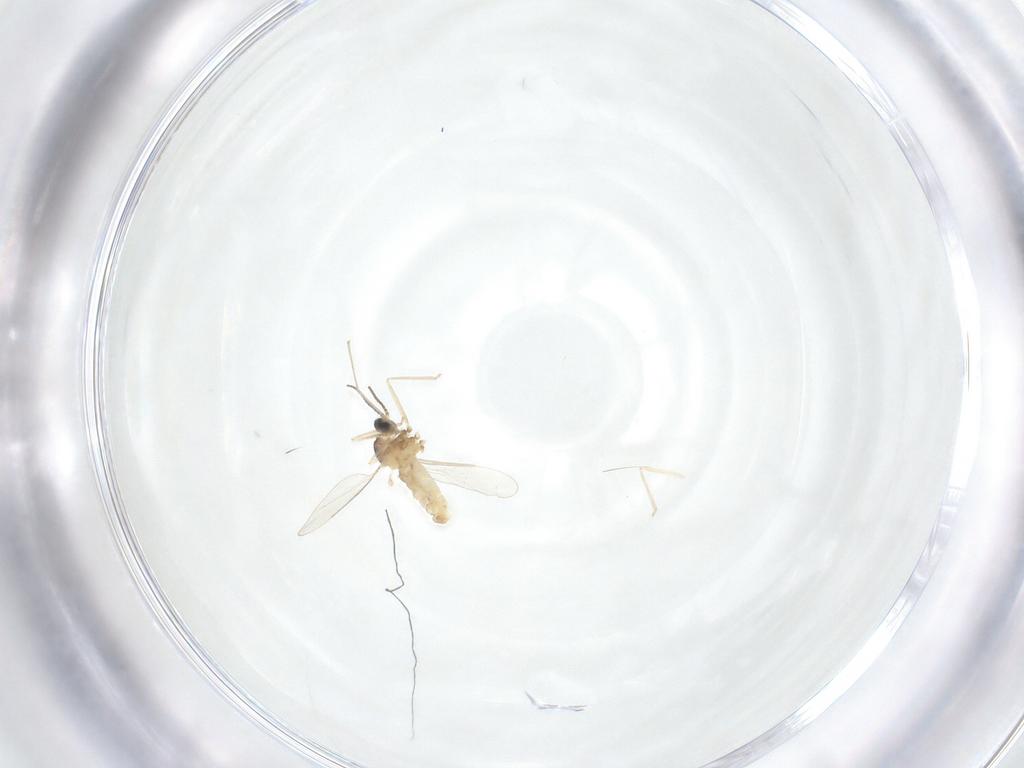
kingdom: Animalia
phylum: Arthropoda
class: Insecta
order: Diptera
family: Cecidomyiidae
